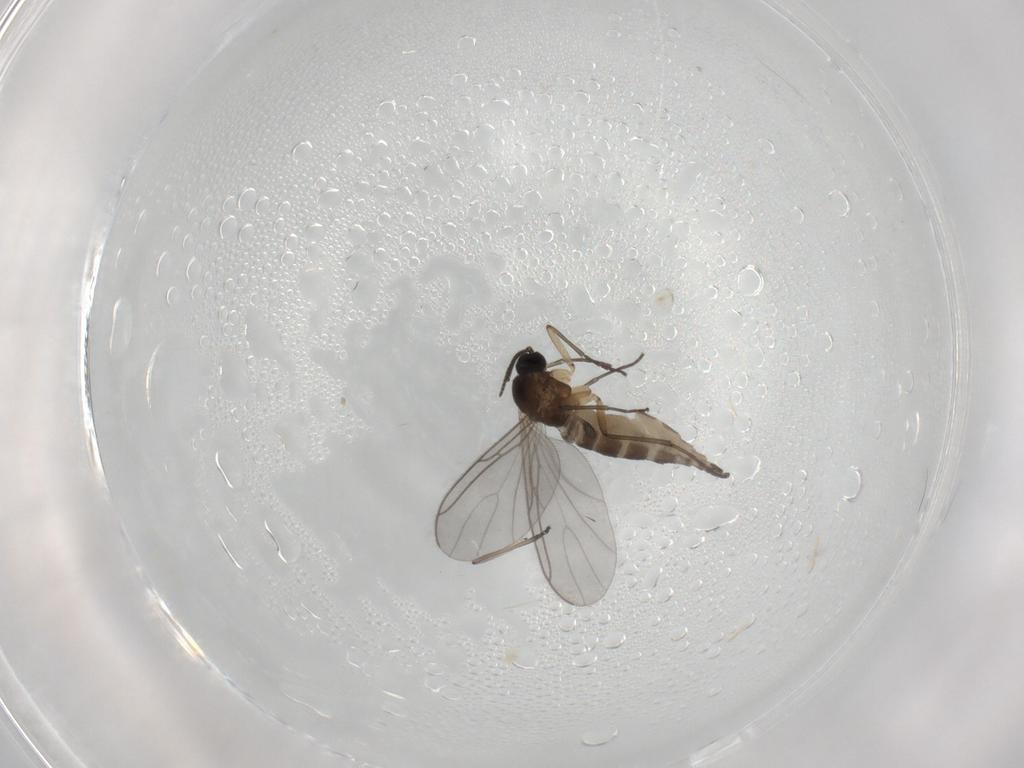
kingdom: Animalia
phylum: Arthropoda
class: Insecta
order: Diptera
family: Sciaridae
